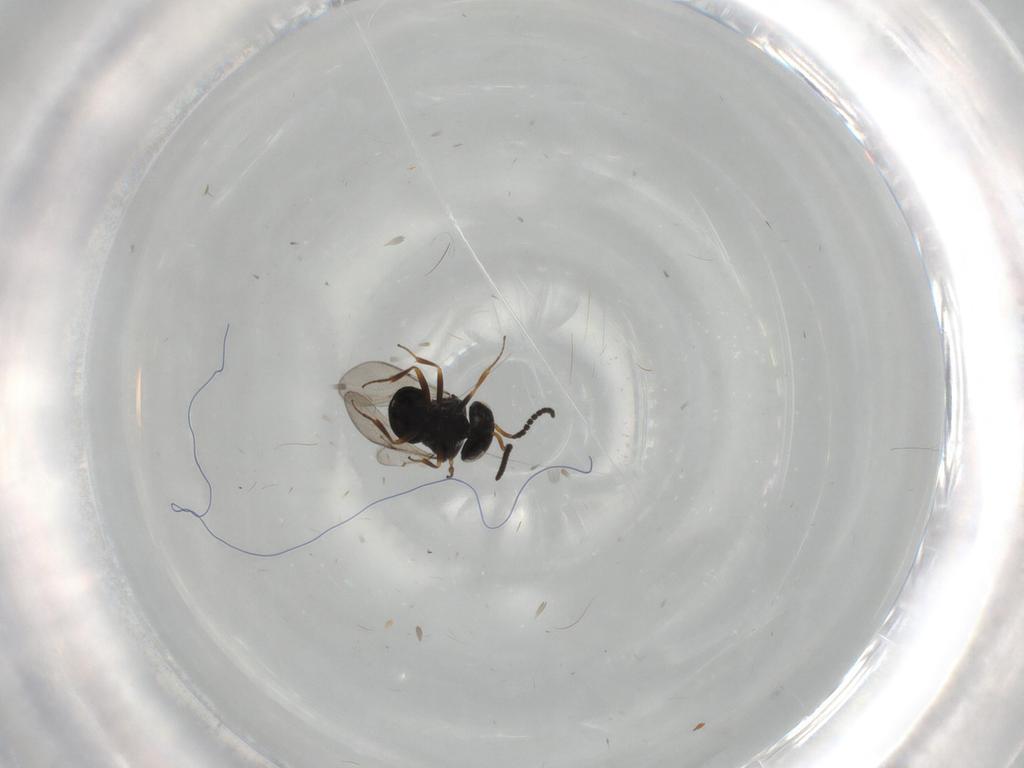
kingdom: Animalia
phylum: Arthropoda
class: Insecta
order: Hymenoptera
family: Scelionidae
